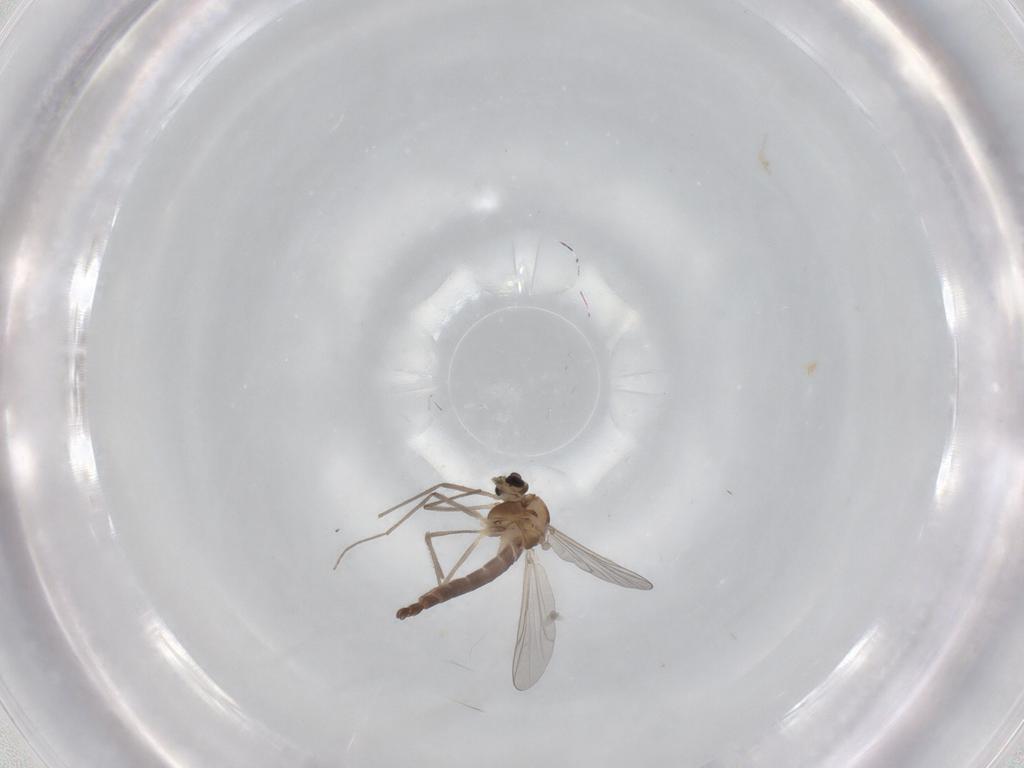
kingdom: Animalia
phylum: Arthropoda
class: Insecta
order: Diptera
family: Chironomidae
